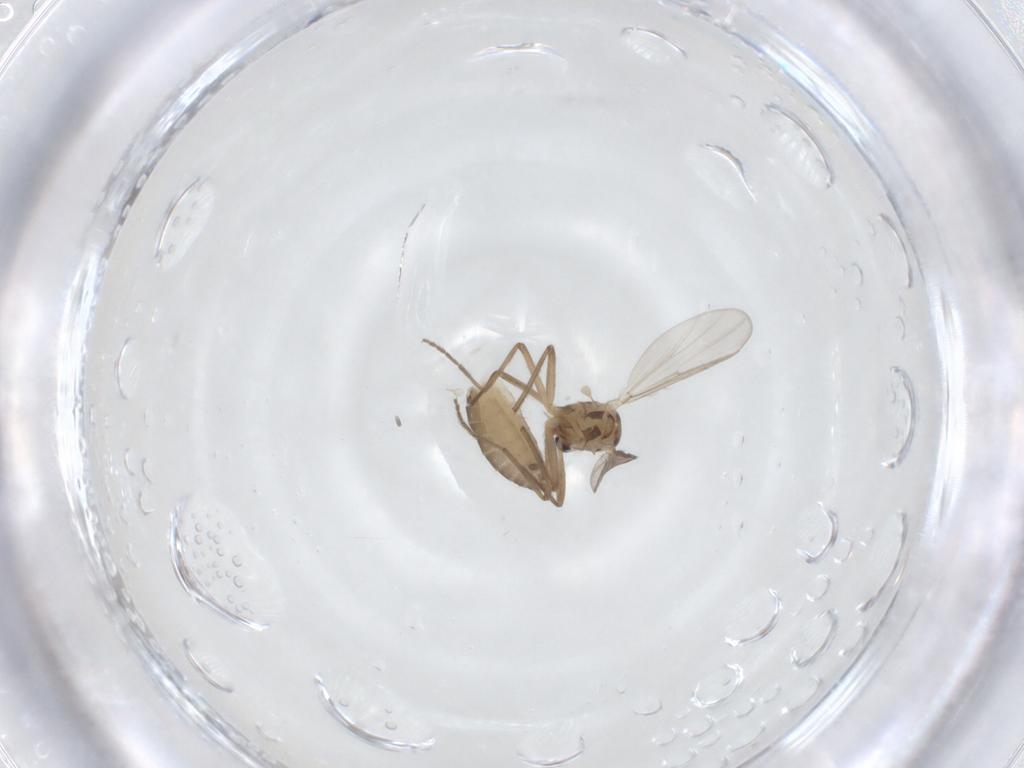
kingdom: Animalia
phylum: Arthropoda
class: Insecta
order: Diptera
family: Chironomidae
